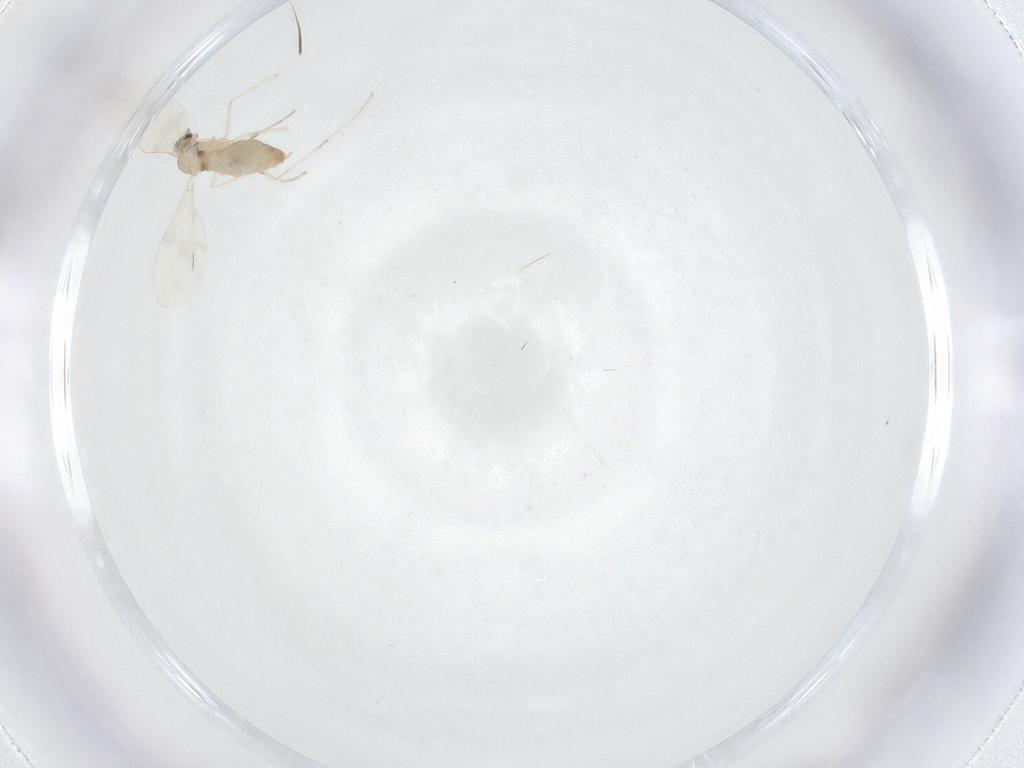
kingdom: Animalia
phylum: Arthropoda
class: Insecta
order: Diptera
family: Cecidomyiidae
